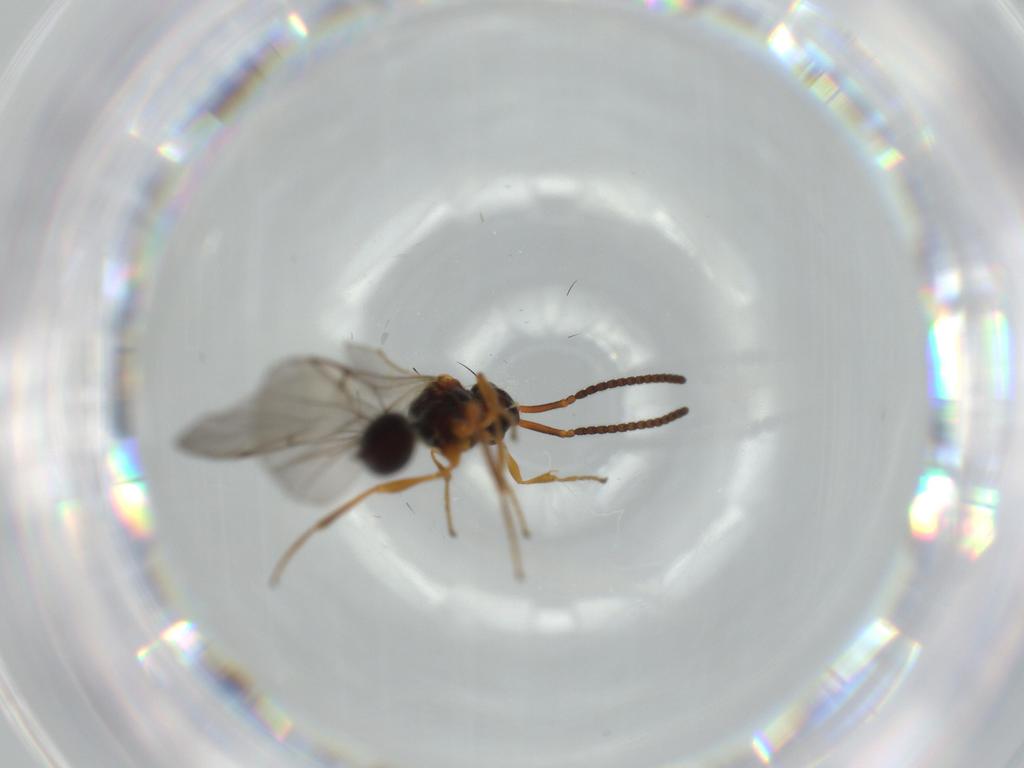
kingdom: Animalia
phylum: Arthropoda
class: Insecta
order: Hymenoptera
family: Diapriidae
